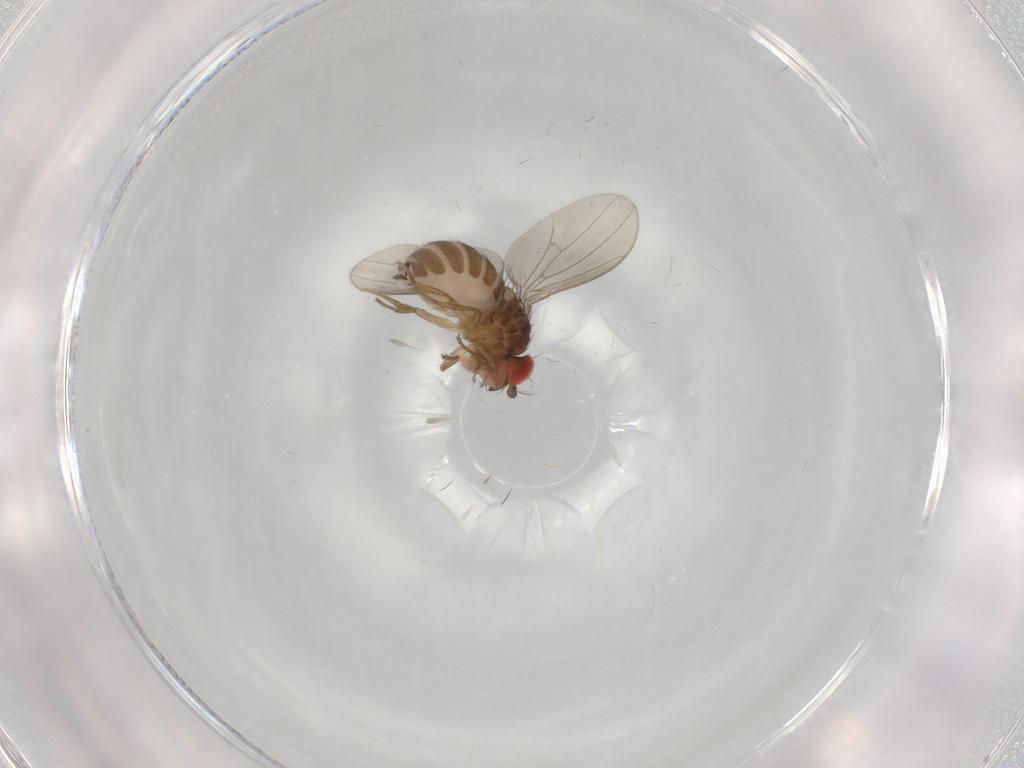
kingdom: Animalia
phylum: Arthropoda
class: Insecta
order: Diptera
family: Drosophilidae
